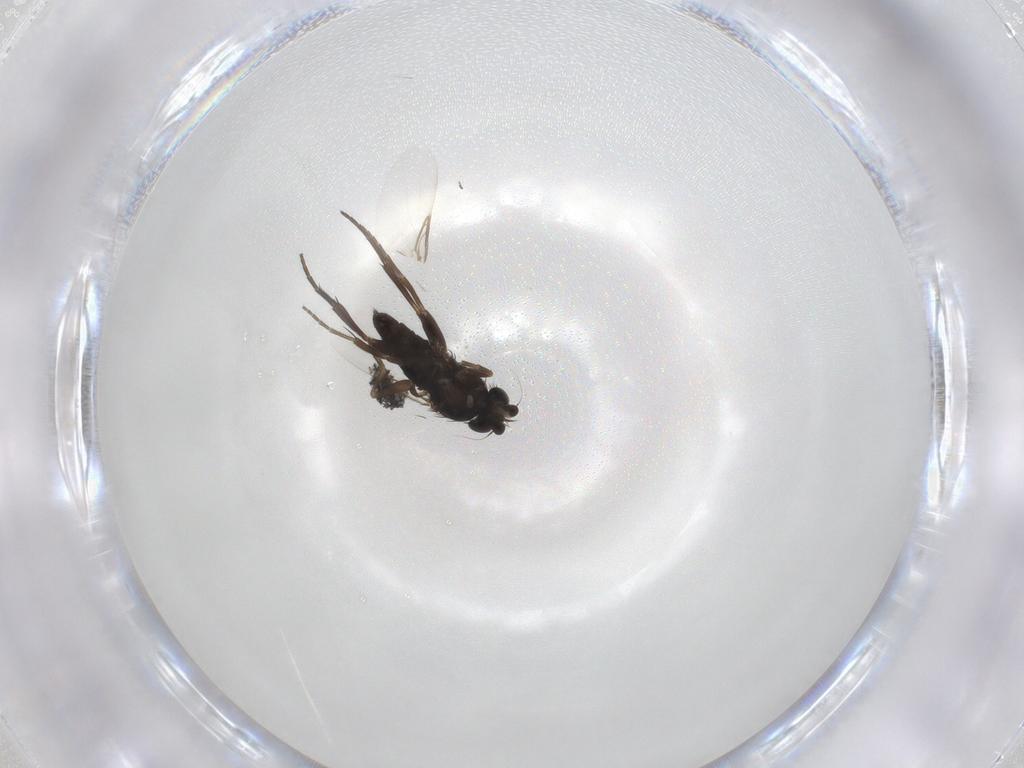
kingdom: Animalia
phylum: Arthropoda
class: Insecta
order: Diptera
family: Phoridae
